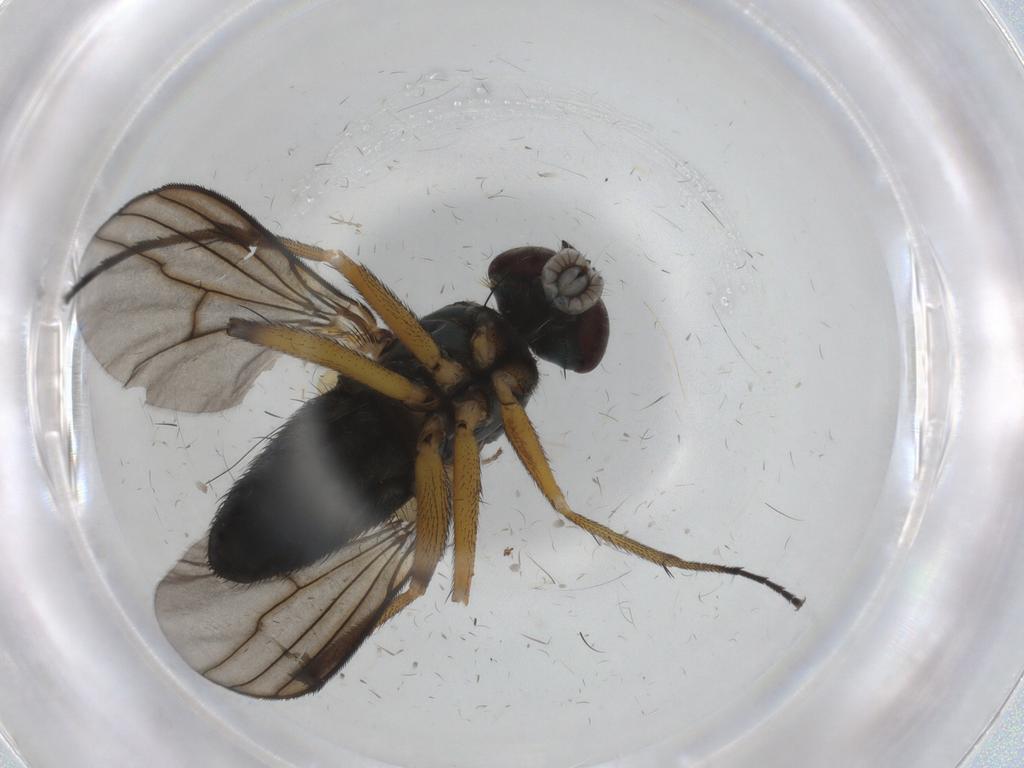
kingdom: Animalia
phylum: Arthropoda
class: Insecta
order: Diptera
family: Dolichopodidae
